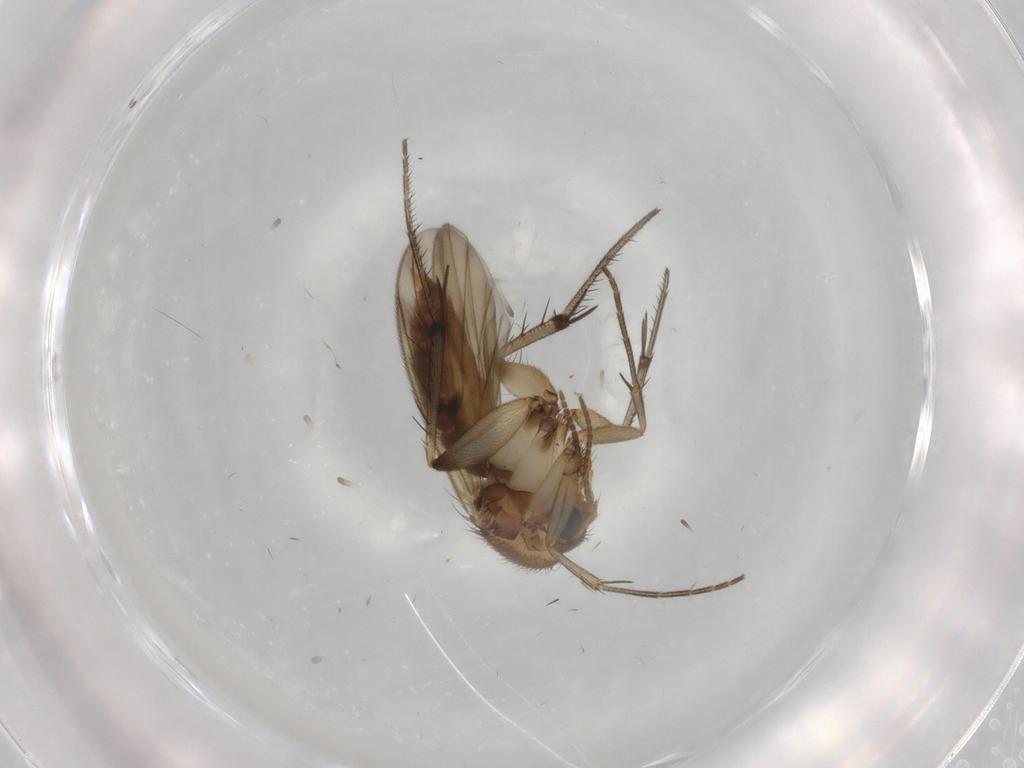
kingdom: Animalia
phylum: Arthropoda
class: Insecta
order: Diptera
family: Mycetophilidae
